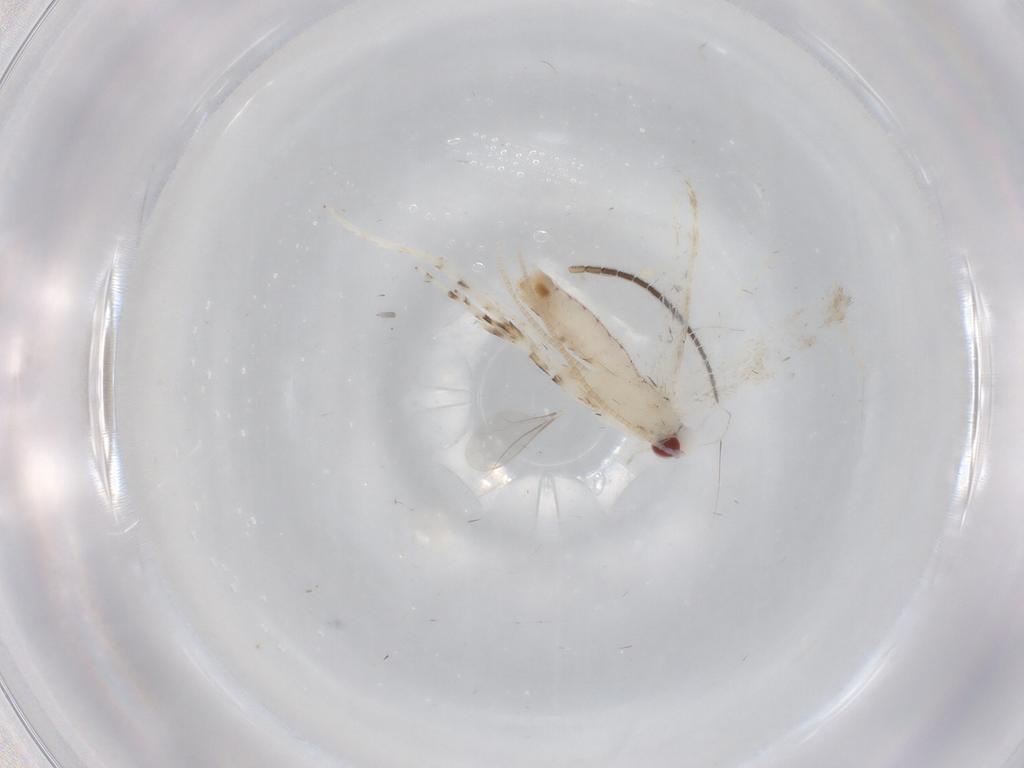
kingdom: Animalia
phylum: Arthropoda
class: Insecta
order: Lepidoptera
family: Gracillariidae
